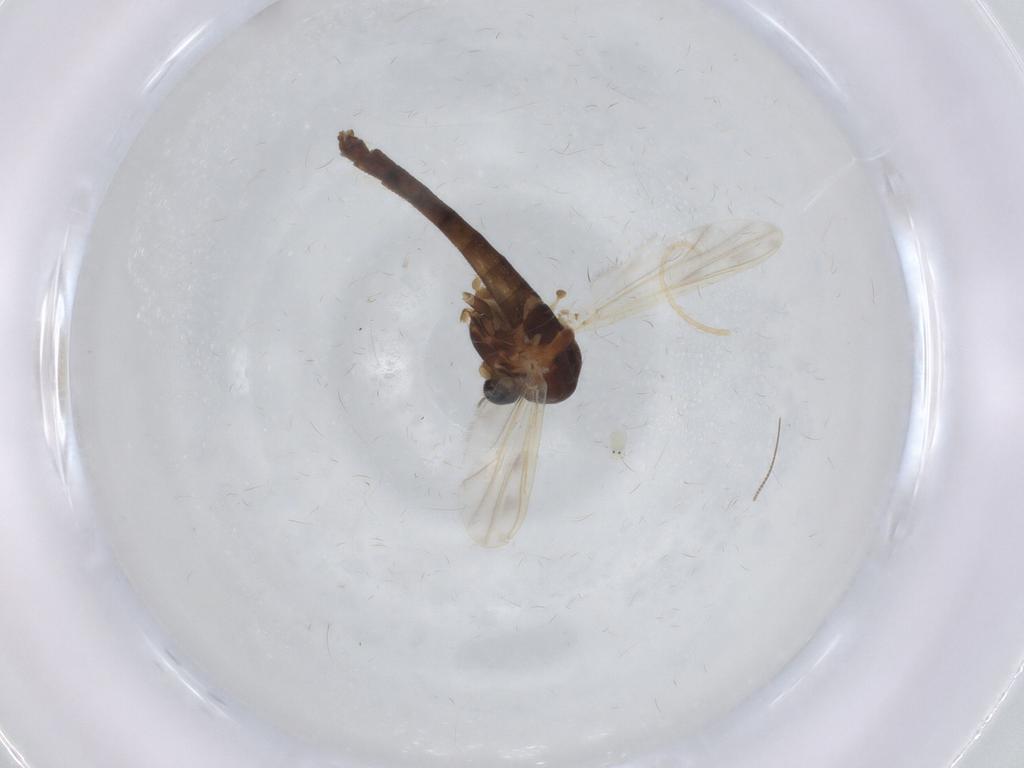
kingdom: Animalia
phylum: Arthropoda
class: Insecta
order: Diptera
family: Chironomidae
